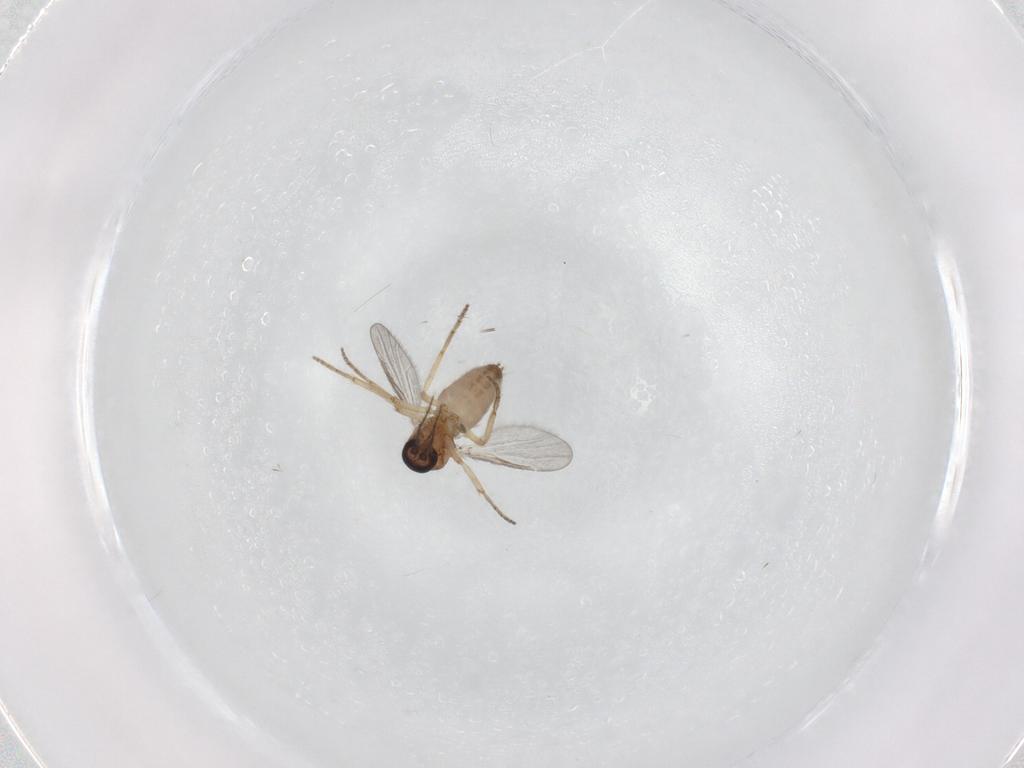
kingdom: Animalia
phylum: Arthropoda
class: Insecta
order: Diptera
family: Ceratopogonidae
